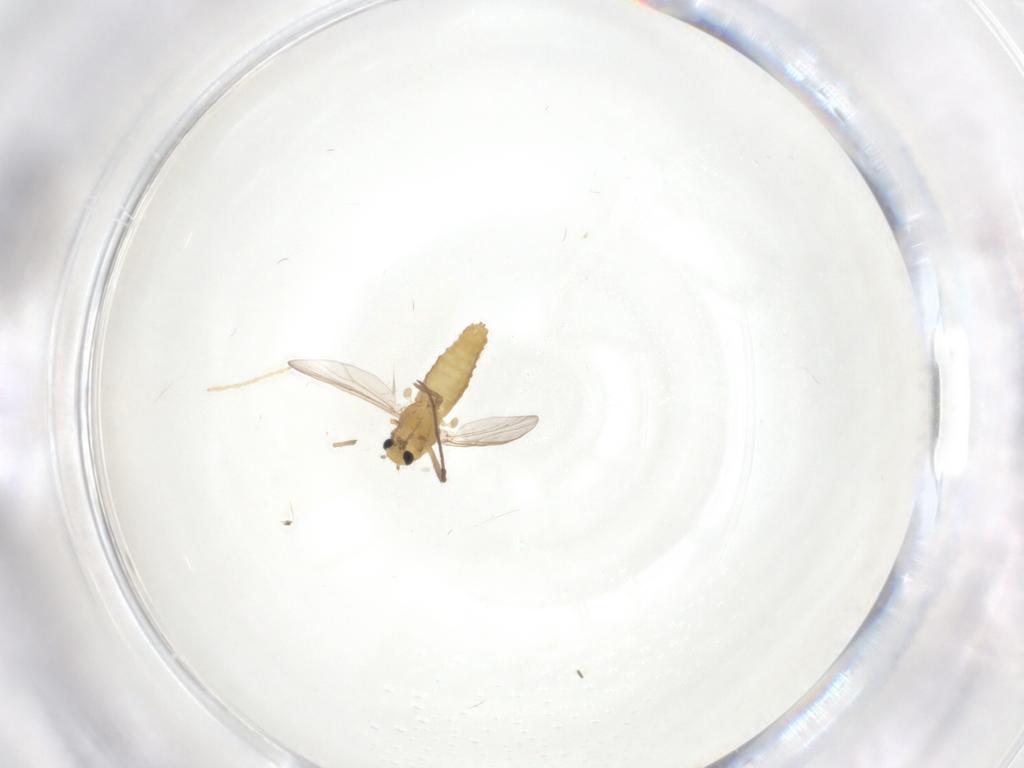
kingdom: Animalia
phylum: Arthropoda
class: Insecta
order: Diptera
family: Chironomidae
